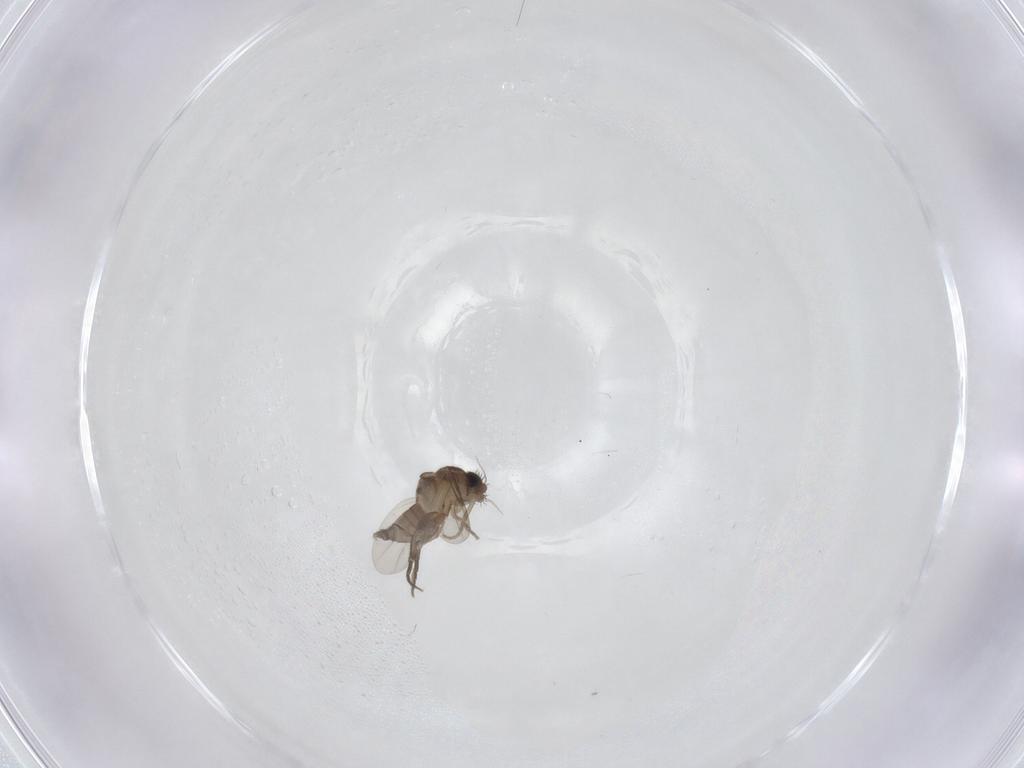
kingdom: Animalia
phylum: Arthropoda
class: Insecta
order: Diptera
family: Phoridae
